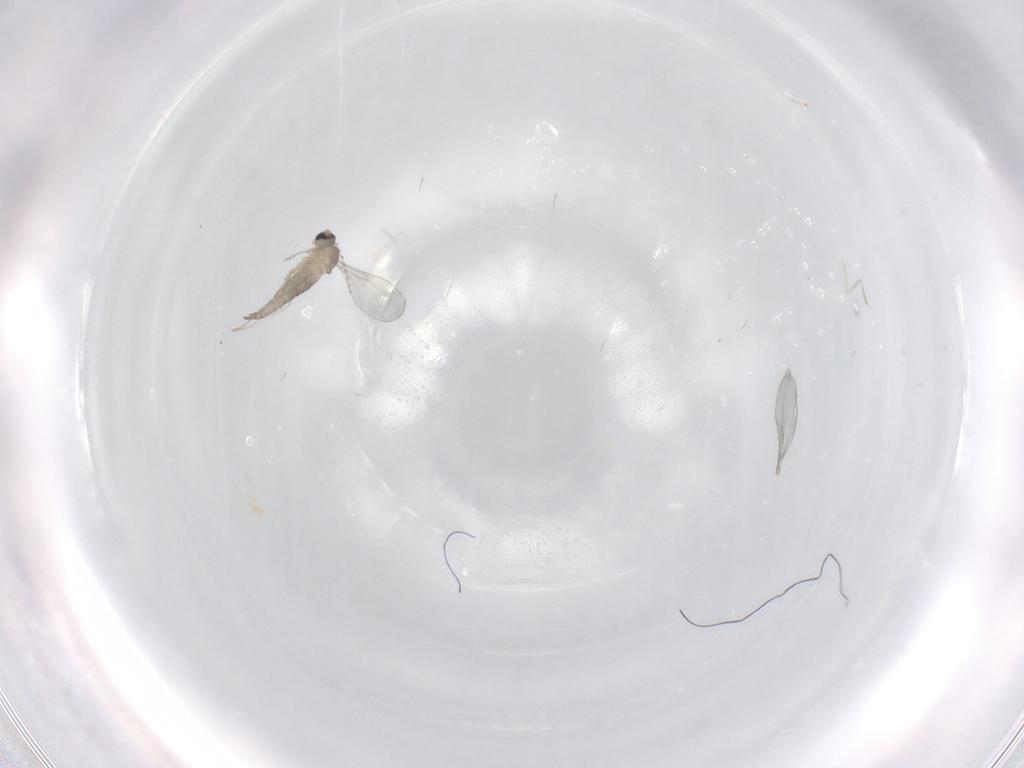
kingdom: Animalia
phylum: Arthropoda
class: Insecta
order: Diptera
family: Cecidomyiidae
